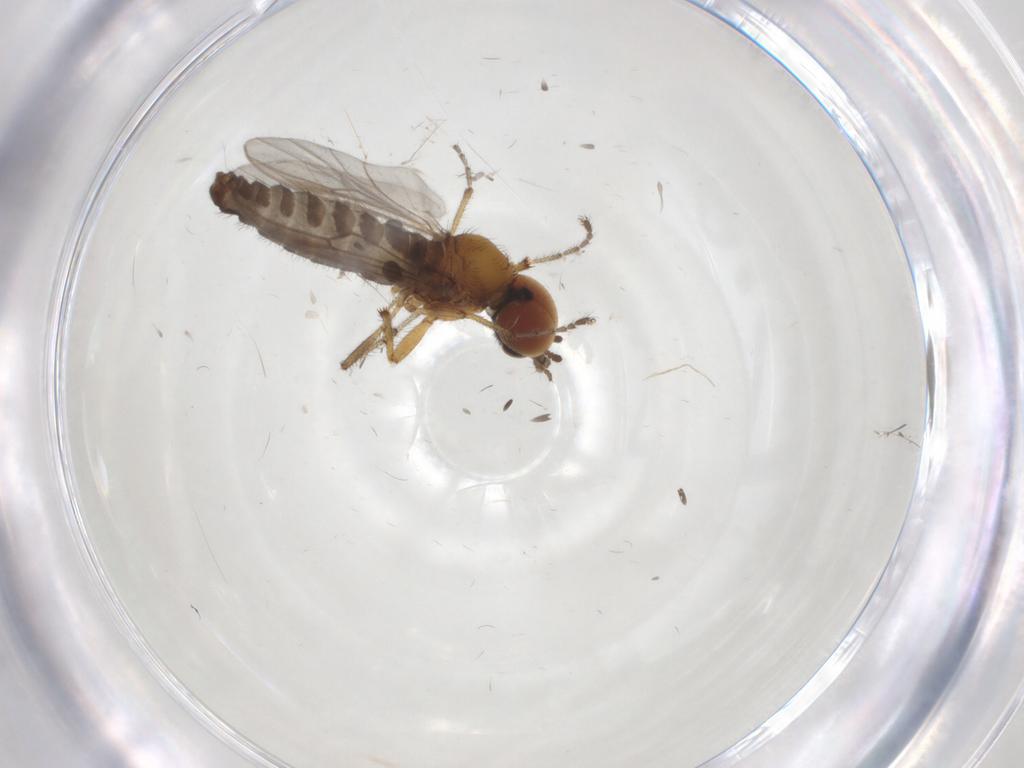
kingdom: Animalia
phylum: Arthropoda
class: Insecta
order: Diptera
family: Bibionidae
